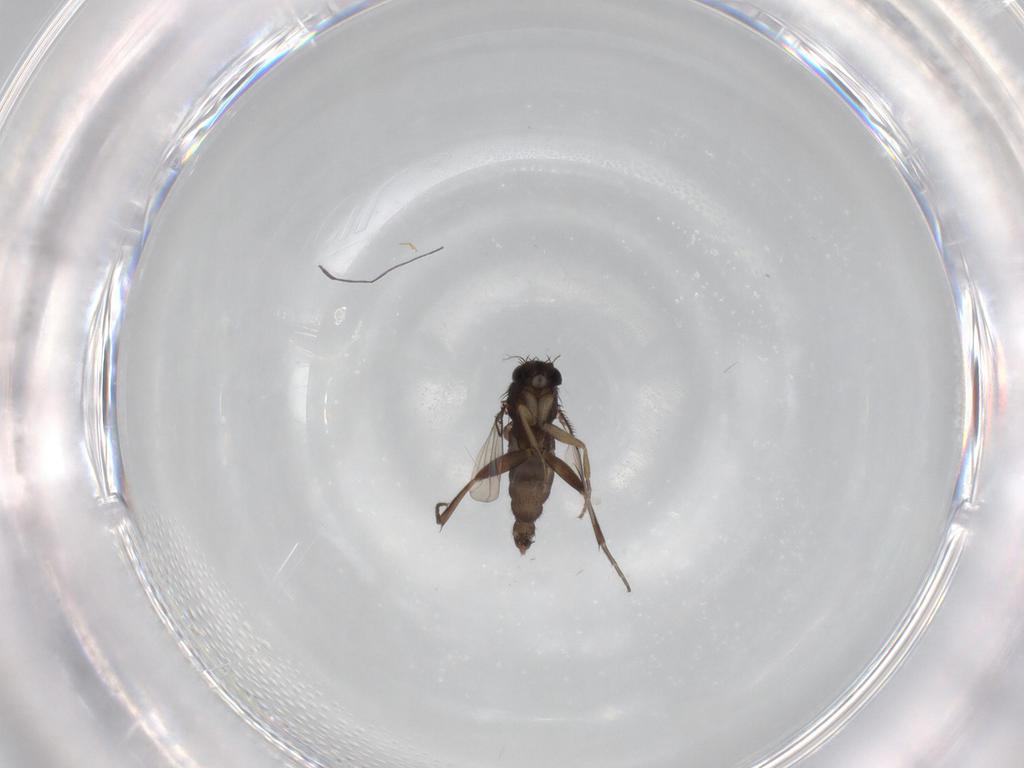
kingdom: Animalia
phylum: Arthropoda
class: Insecta
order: Diptera
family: Phoridae
